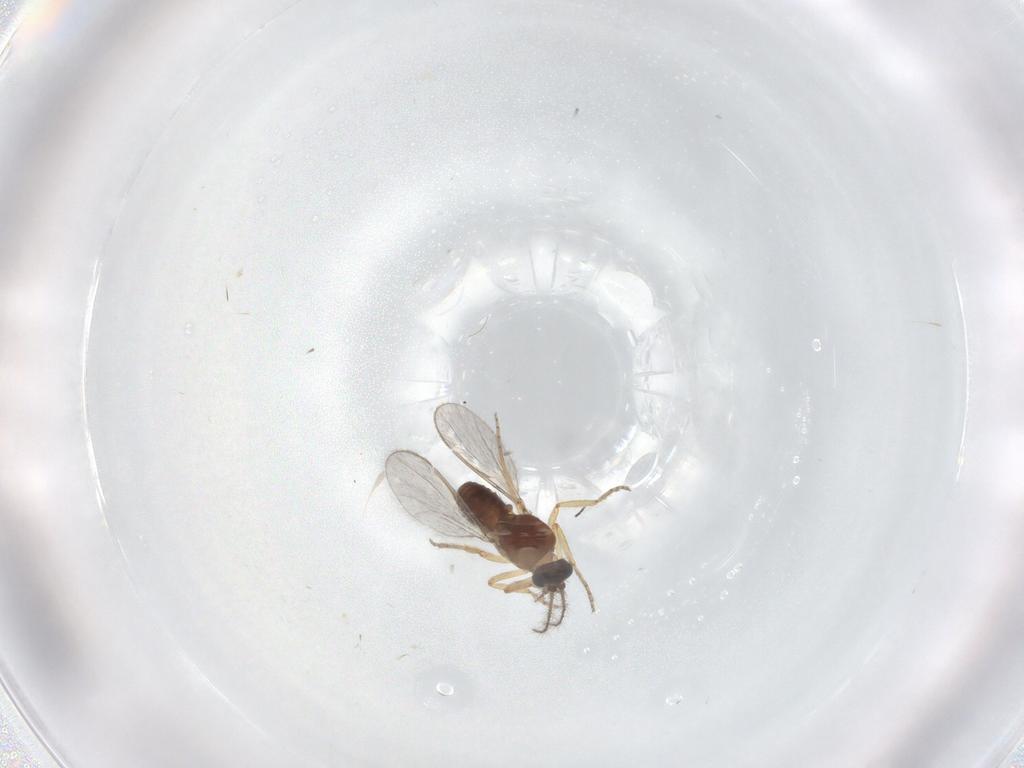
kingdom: Animalia
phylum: Arthropoda
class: Insecta
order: Diptera
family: Ceratopogonidae
